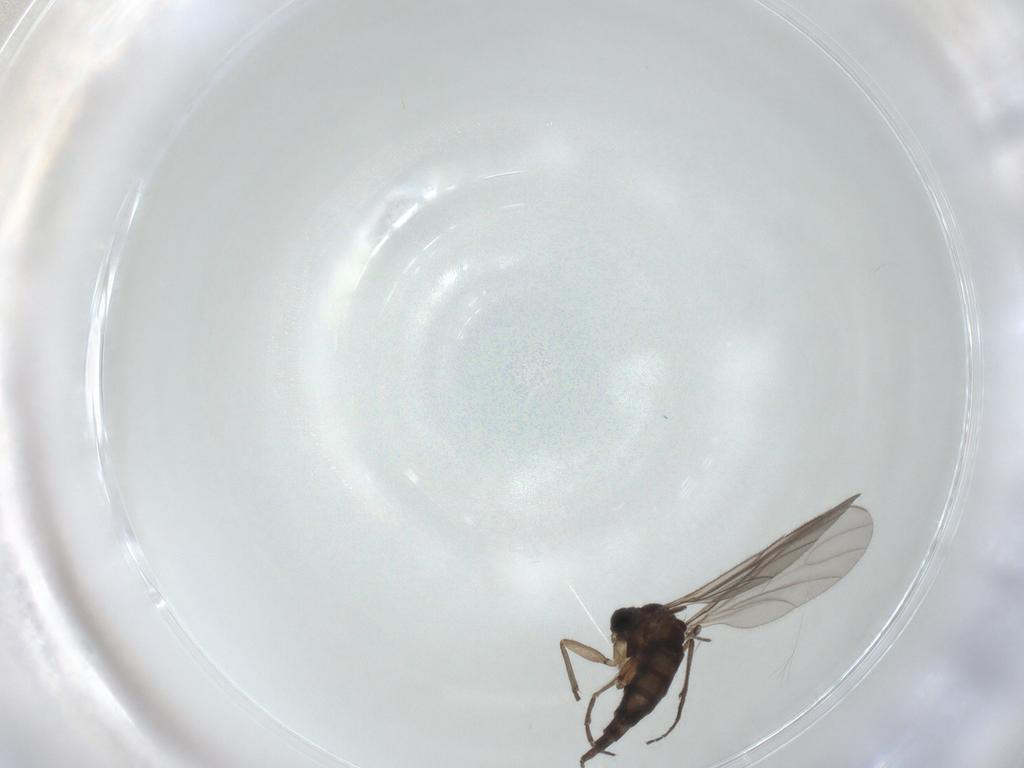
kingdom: Animalia
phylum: Arthropoda
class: Insecta
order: Diptera
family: Sciaridae
